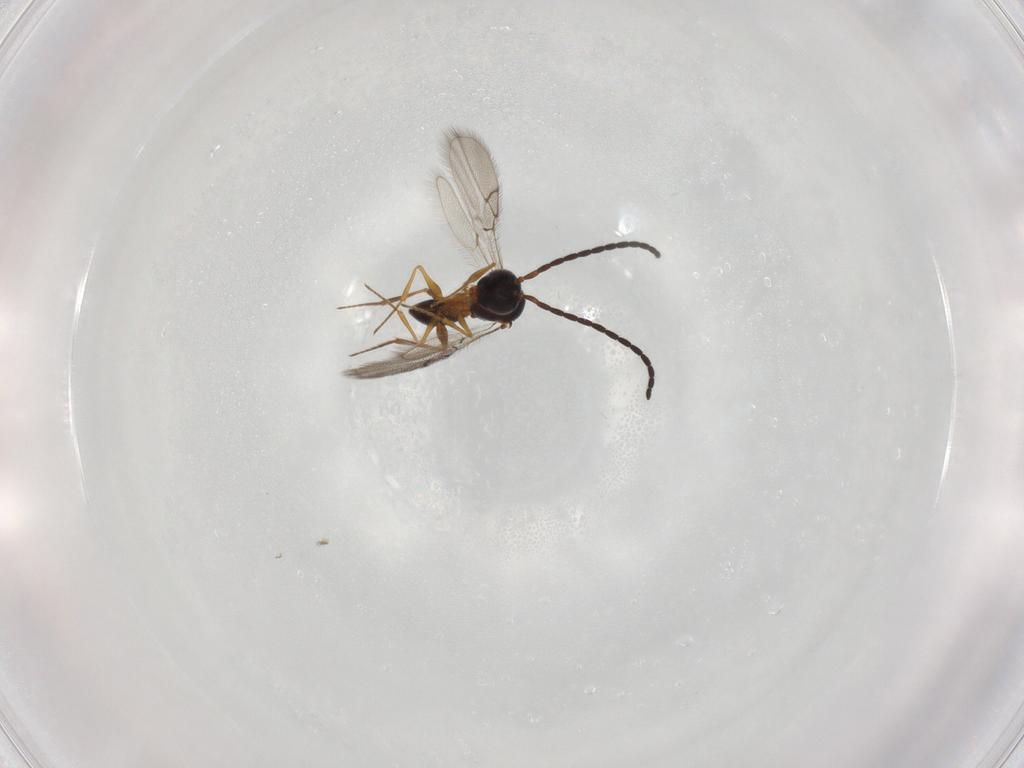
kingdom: Animalia
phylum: Arthropoda
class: Insecta
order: Hymenoptera
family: Figitidae
